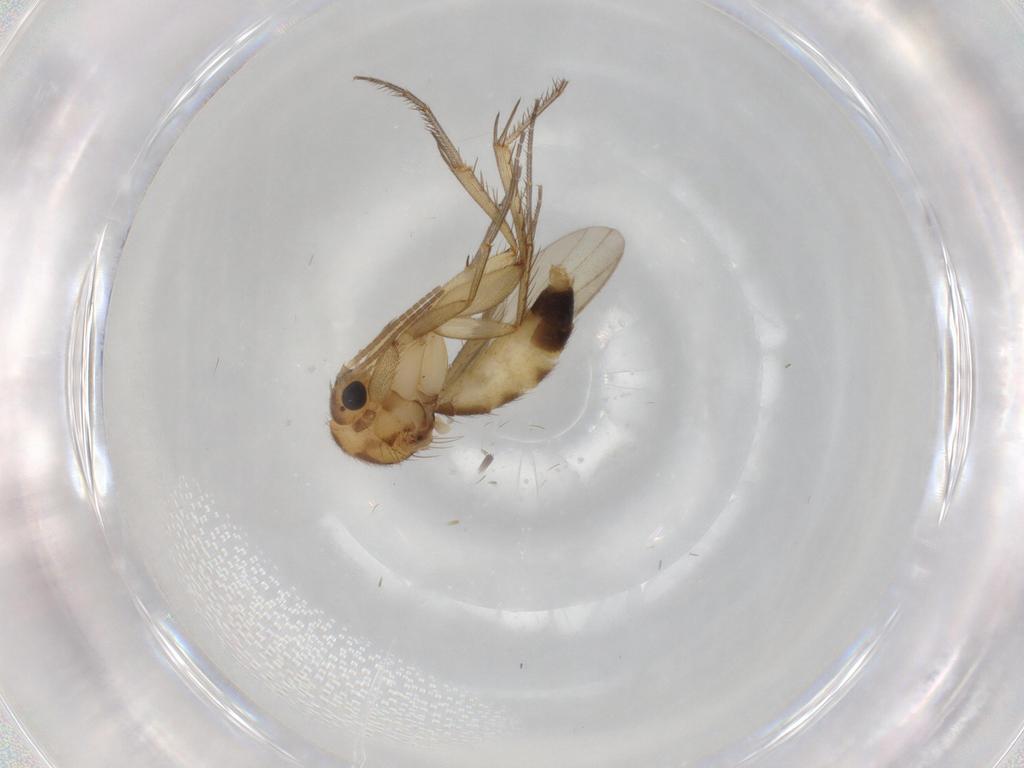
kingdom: Animalia
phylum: Arthropoda
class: Insecta
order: Diptera
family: Mycetophilidae
